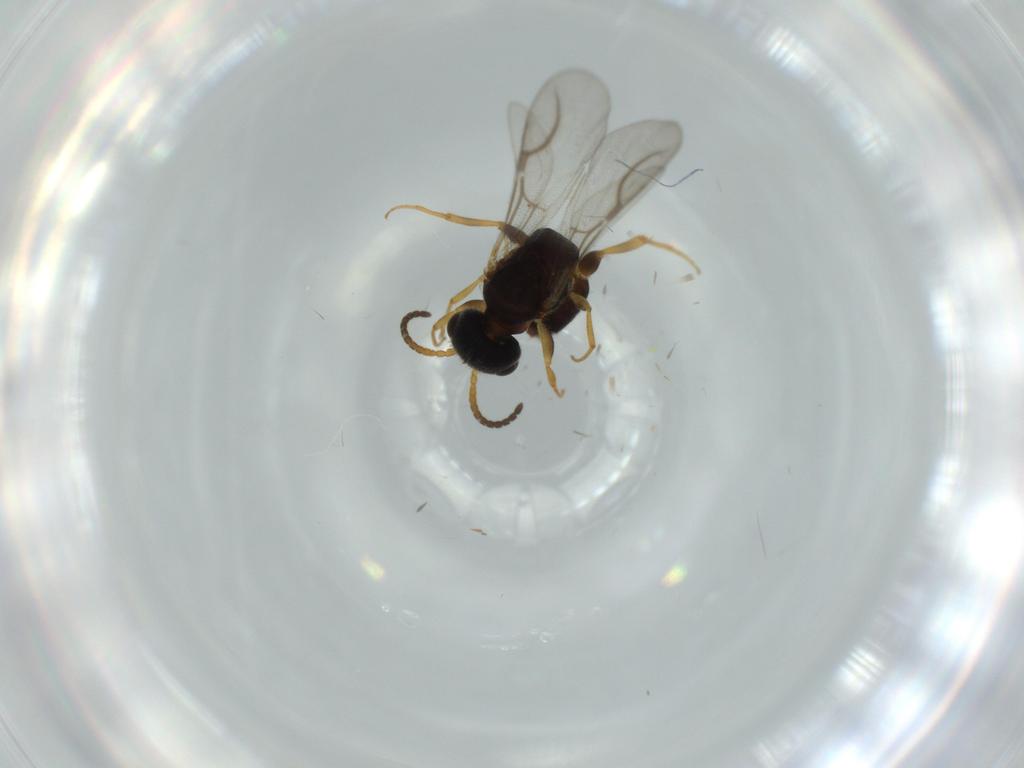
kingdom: Animalia
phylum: Arthropoda
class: Insecta
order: Hymenoptera
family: Bethylidae
